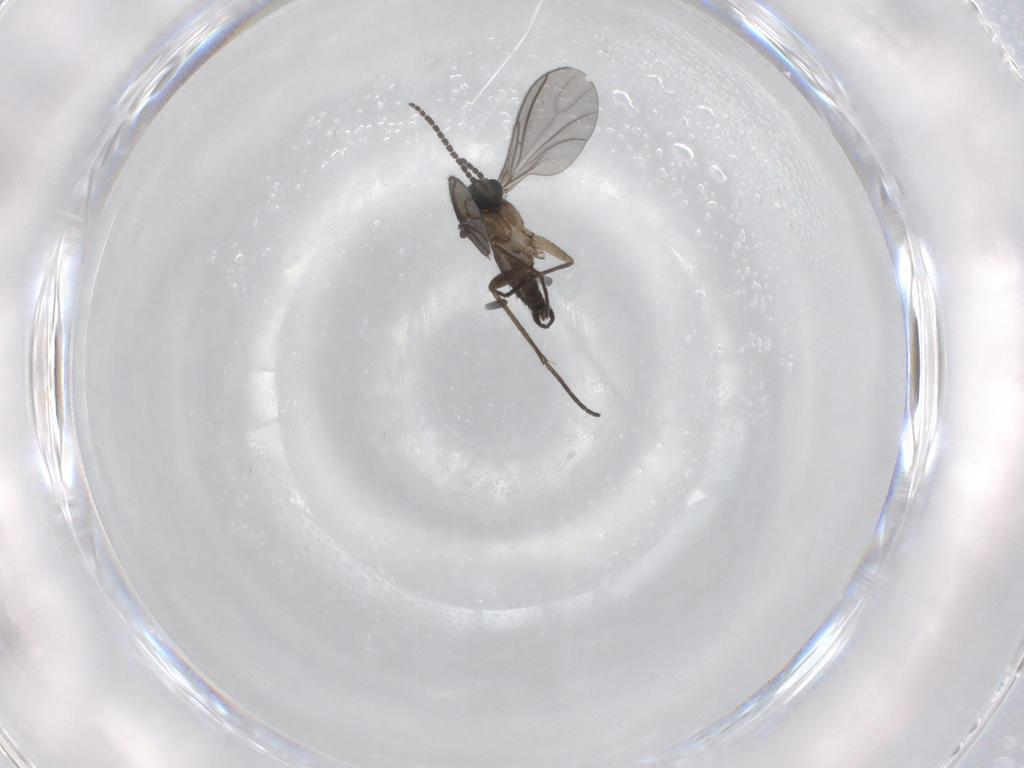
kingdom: Animalia
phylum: Arthropoda
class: Insecta
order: Diptera
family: Sciaridae
